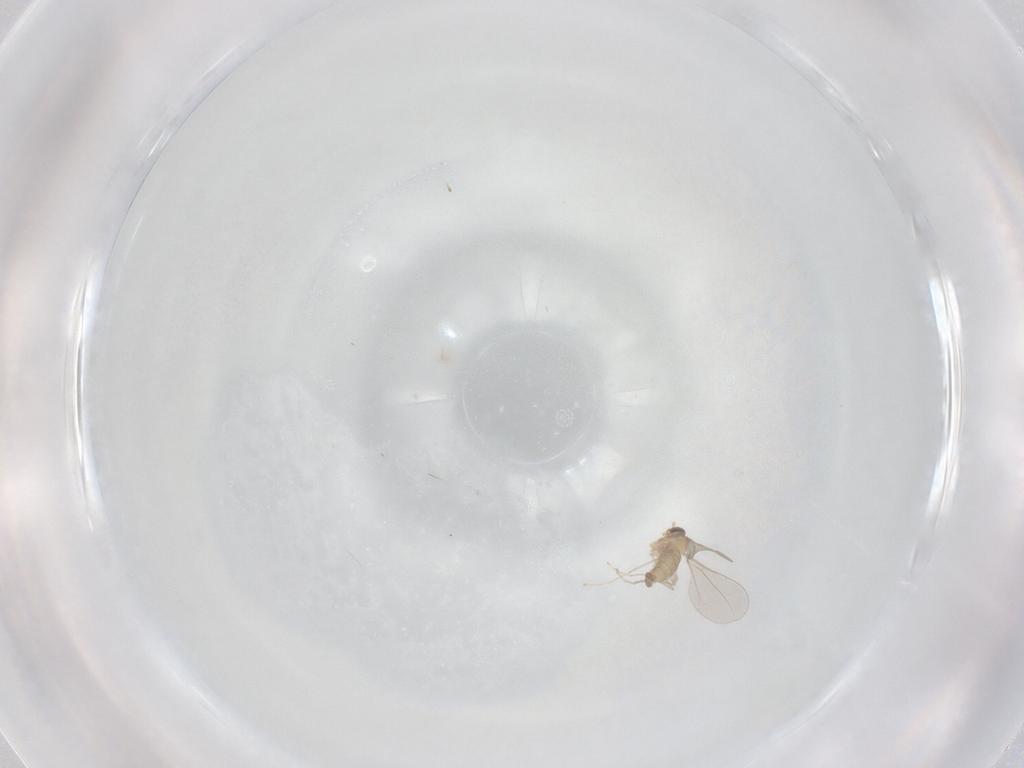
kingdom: Animalia
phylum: Arthropoda
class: Insecta
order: Diptera
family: Cecidomyiidae
